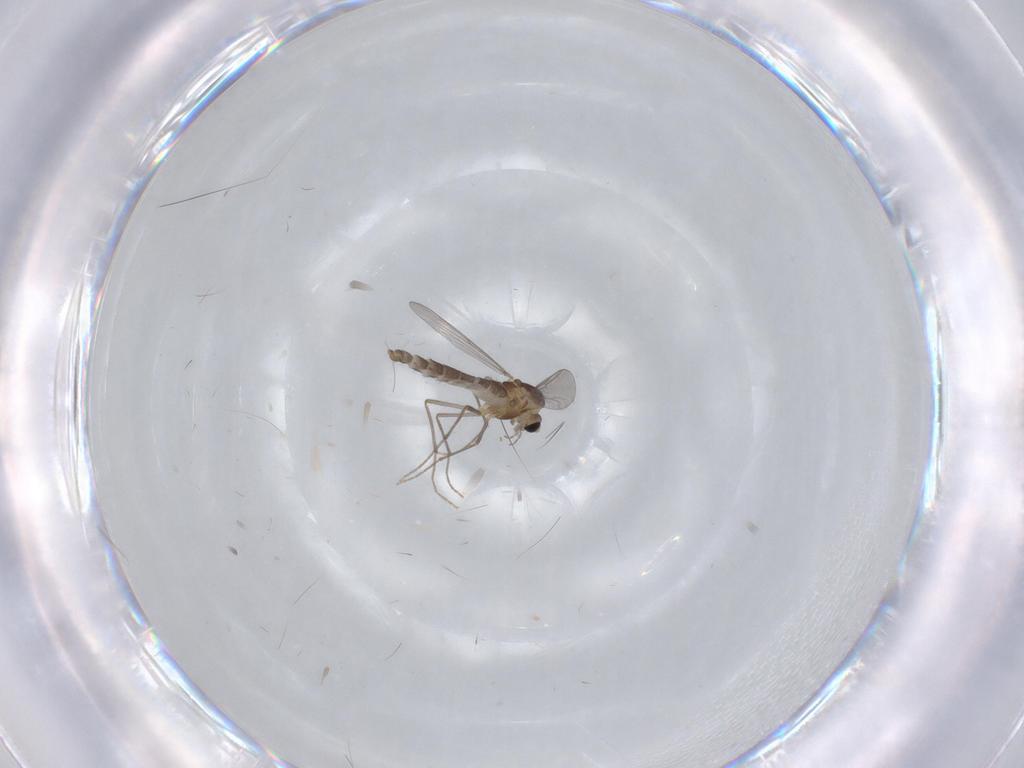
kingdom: Animalia
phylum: Arthropoda
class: Insecta
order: Diptera
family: Chironomidae
